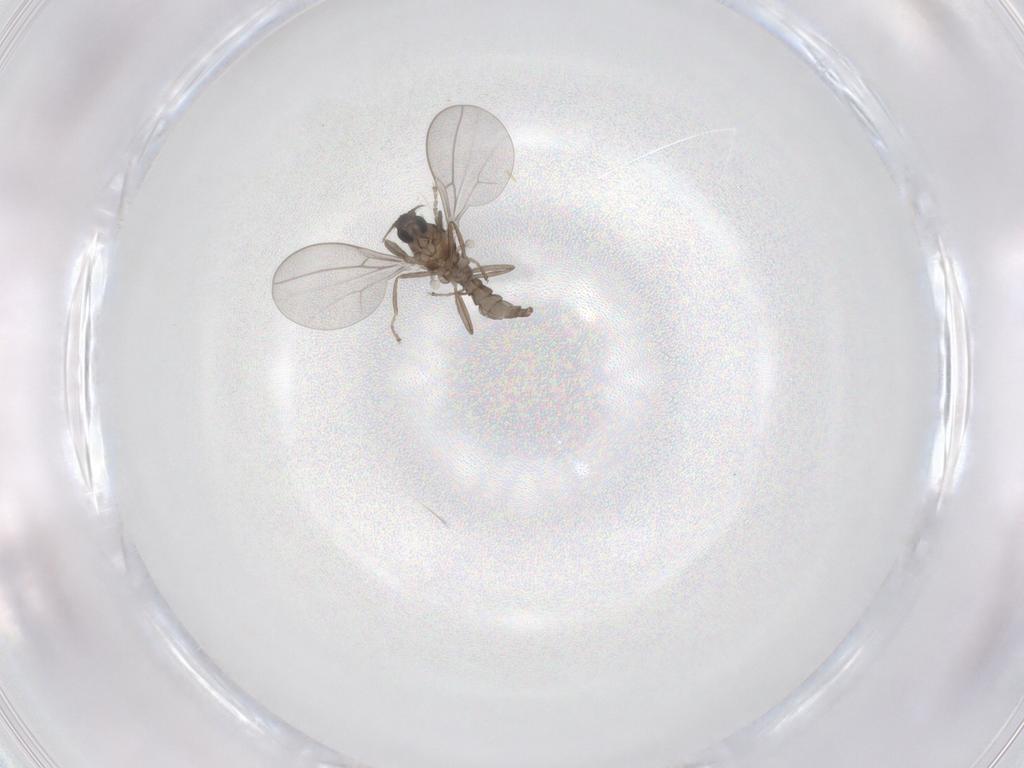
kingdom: Animalia
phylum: Arthropoda
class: Insecta
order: Diptera
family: Cecidomyiidae
